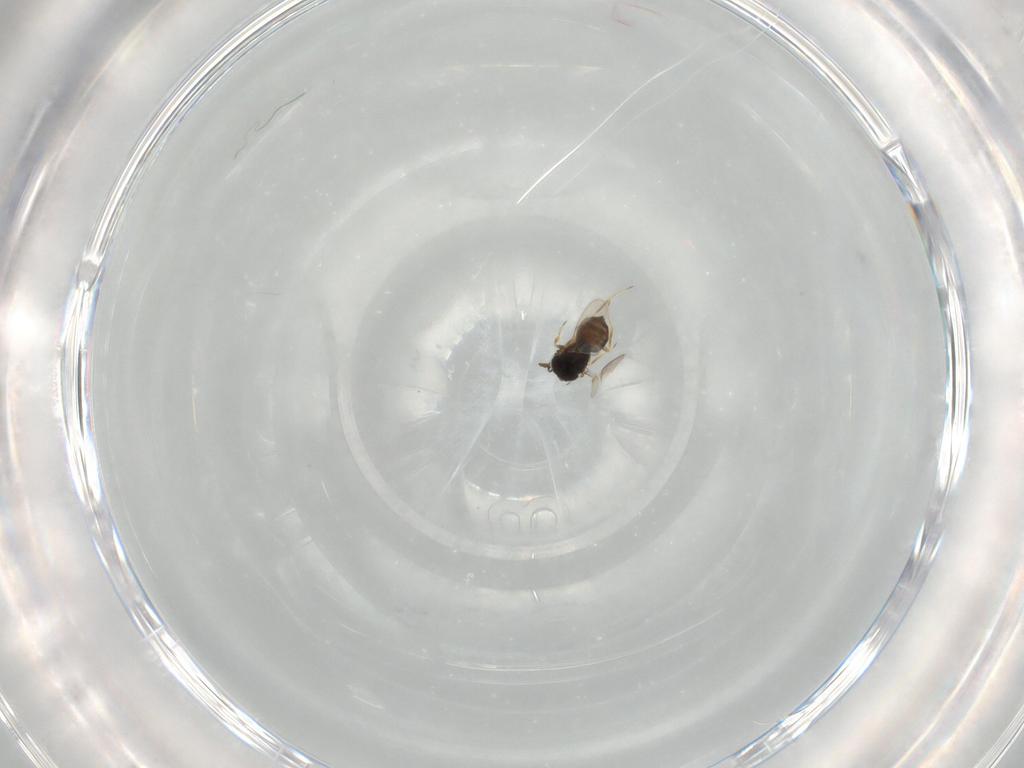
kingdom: Animalia
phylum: Arthropoda
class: Insecta
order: Hymenoptera
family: Scelionidae
